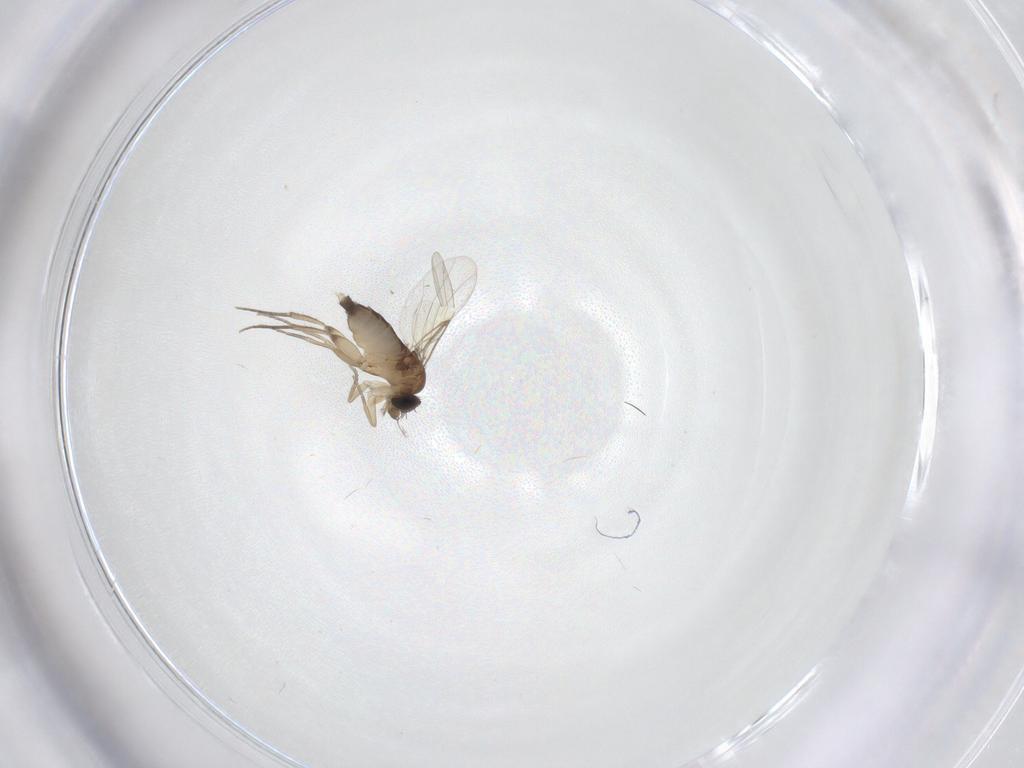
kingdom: Animalia
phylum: Arthropoda
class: Insecta
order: Diptera
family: Phoridae
